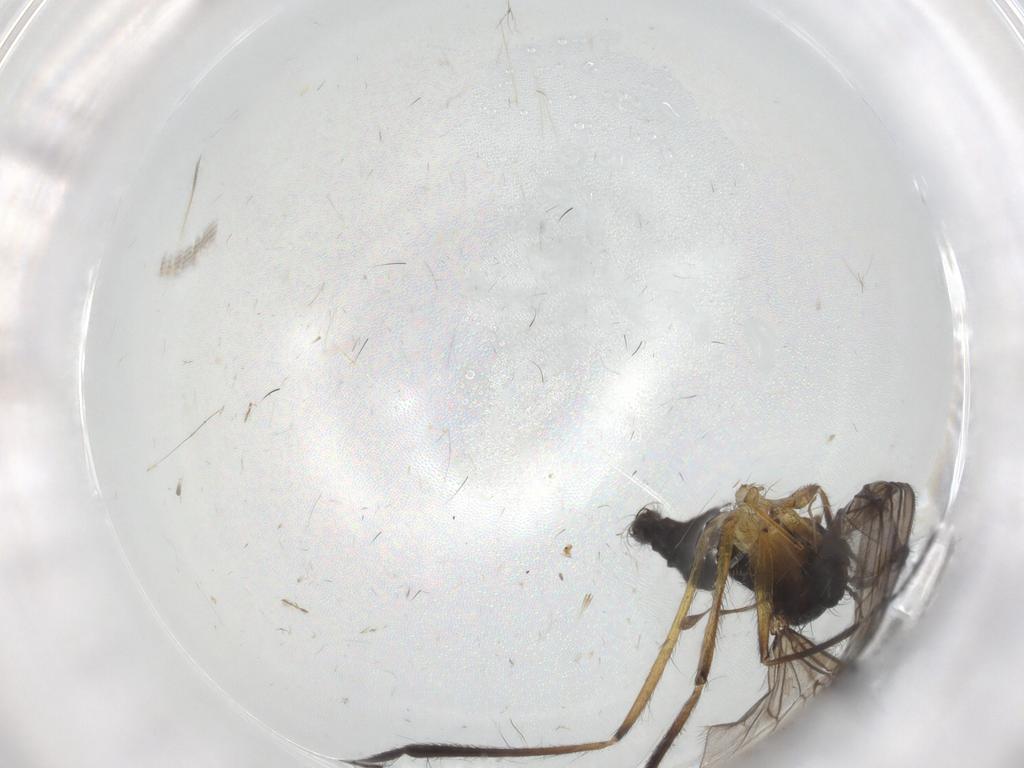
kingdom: Animalia
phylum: Arthropoda
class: Insecta
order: Diptera
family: Empididae
